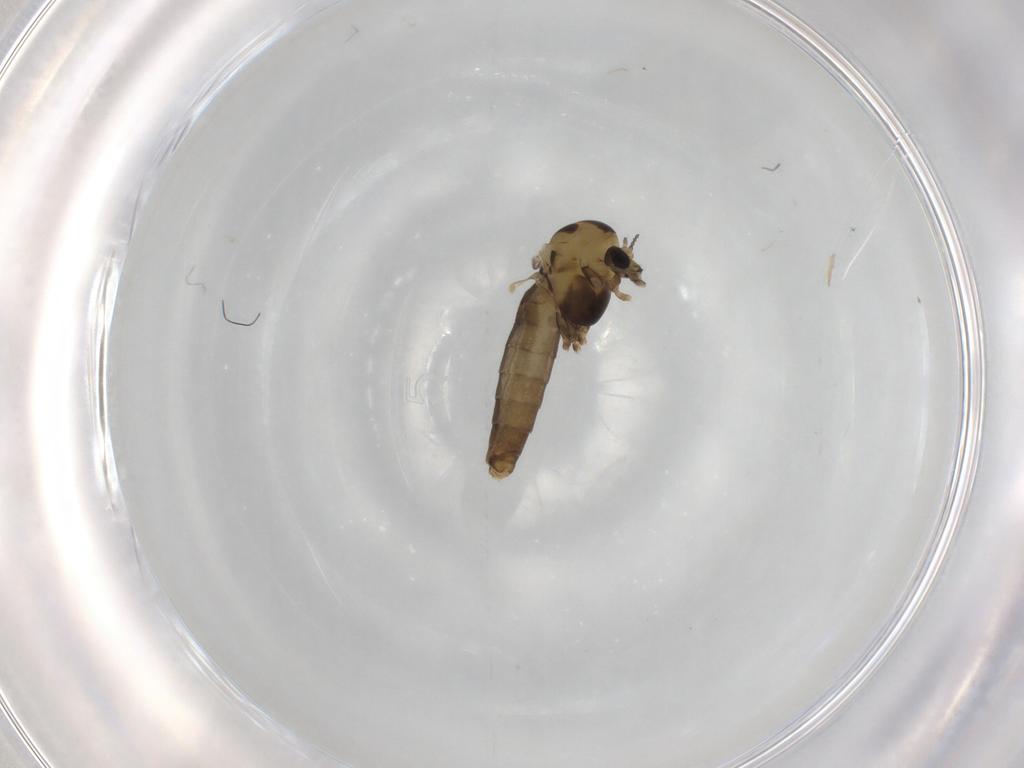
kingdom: Animalia
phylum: Arthropoda
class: Insecta
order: Diptera
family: Chironomidae
